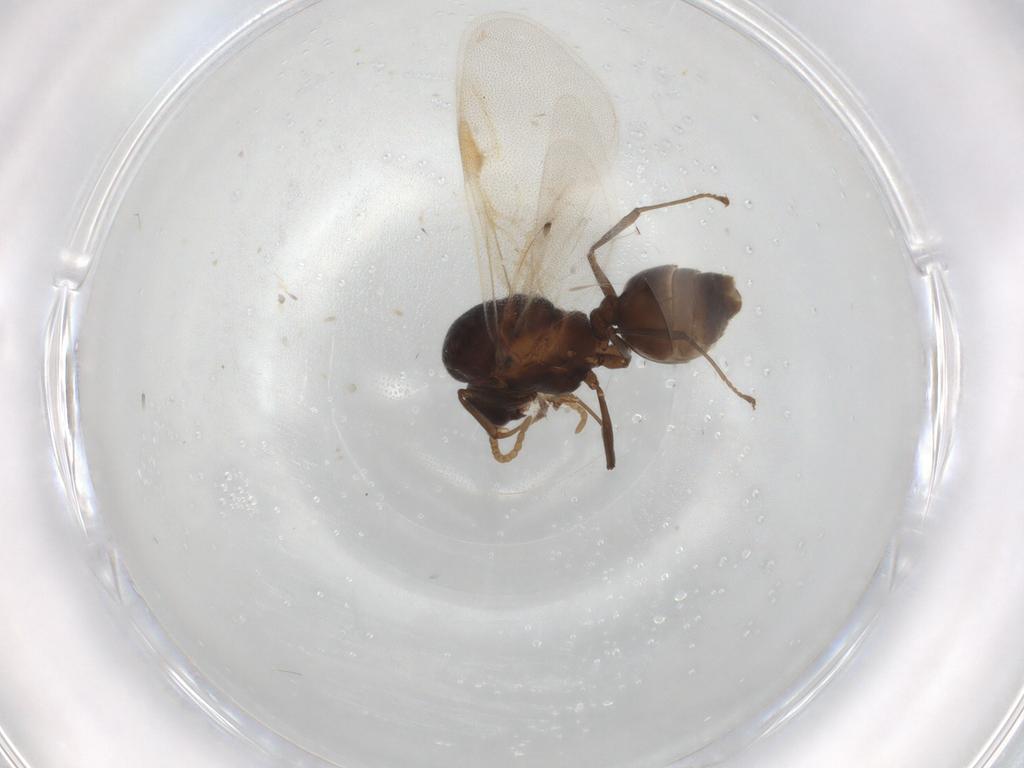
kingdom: Animalia
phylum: Arthropoda
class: Insecta
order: Hymenoptera
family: Formicidae
